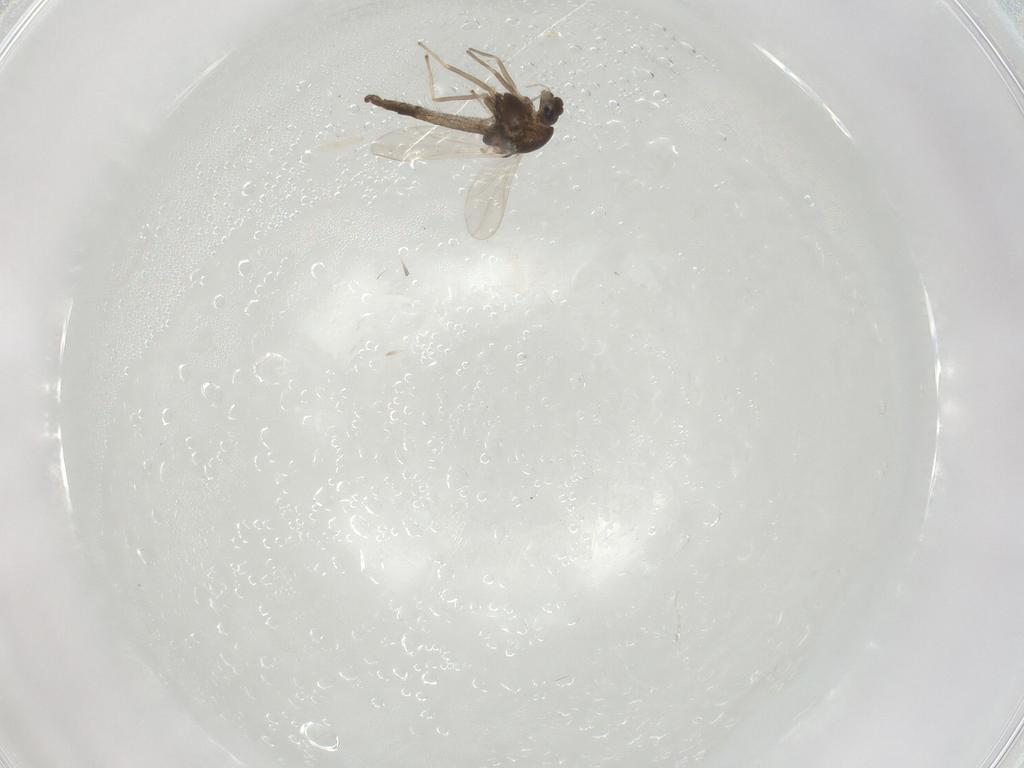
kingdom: Animalia
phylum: Arthropoda
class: Insecta
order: Diptera
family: Chironomidae
